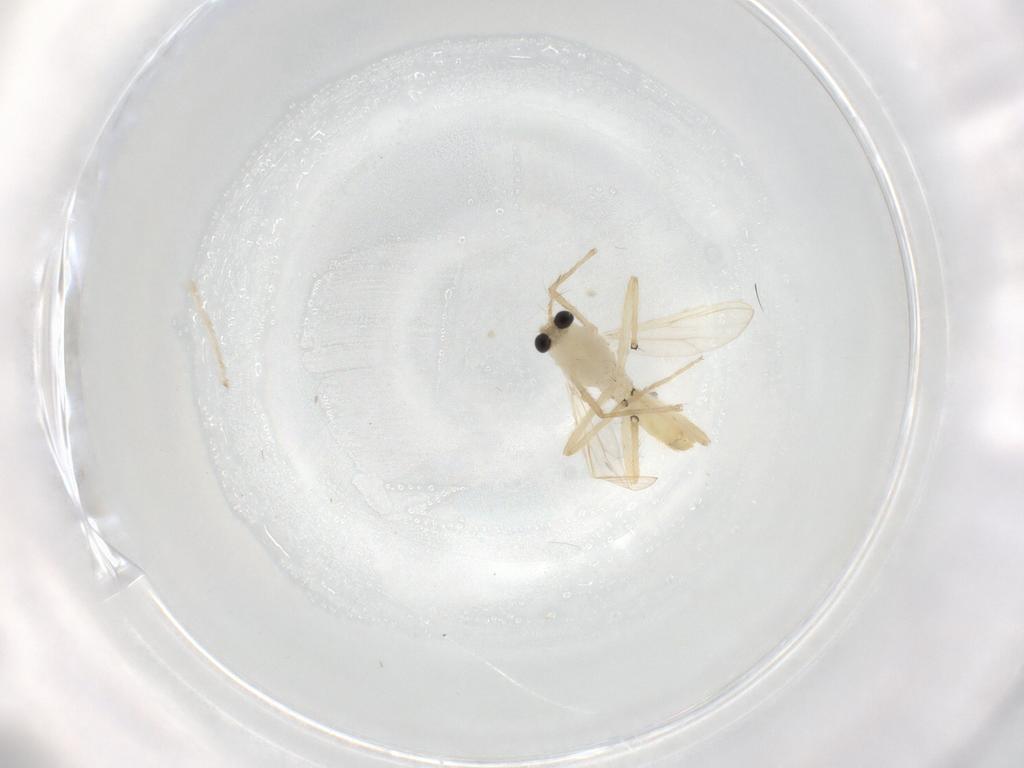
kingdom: Animalia
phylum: Arthropoda
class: Insecta
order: Diptera
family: Chironomidae
